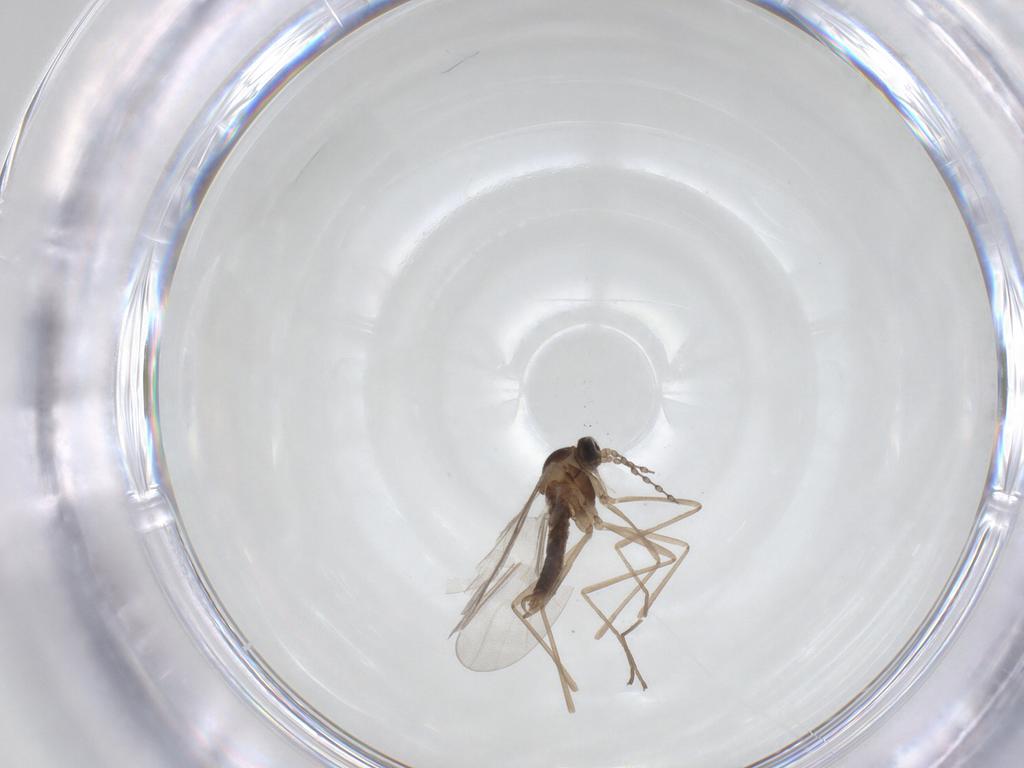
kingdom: Animalia
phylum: Arthropoda
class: Insecta
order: Diptera
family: Cecidomyiidae
